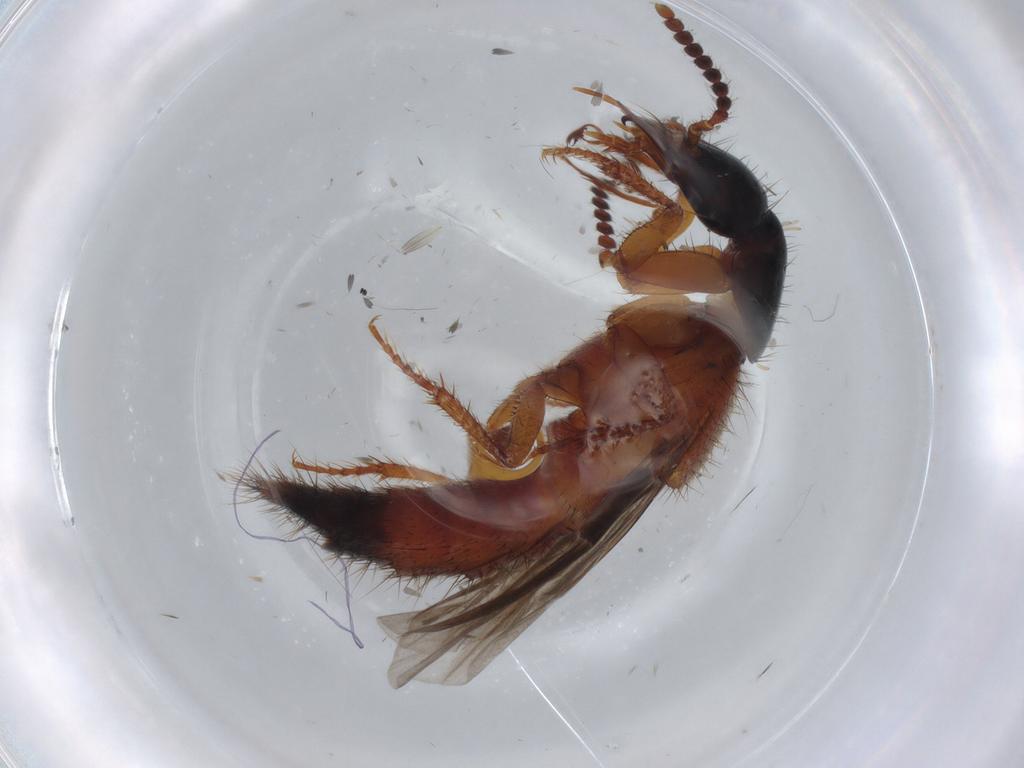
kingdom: Animalia
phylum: Arthropoda
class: Insecta
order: Coleoptera
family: Staphylinidae
